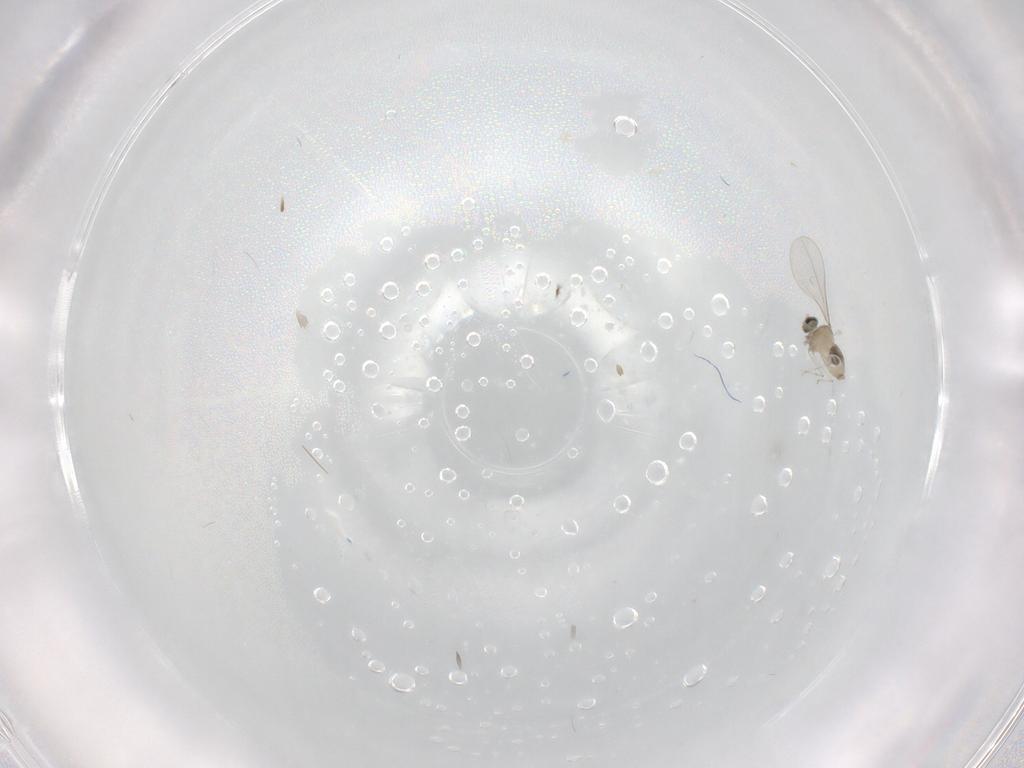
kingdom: Animalia
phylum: Arthropoda
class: Insecta
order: Diptera
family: Cecidomyiidae
